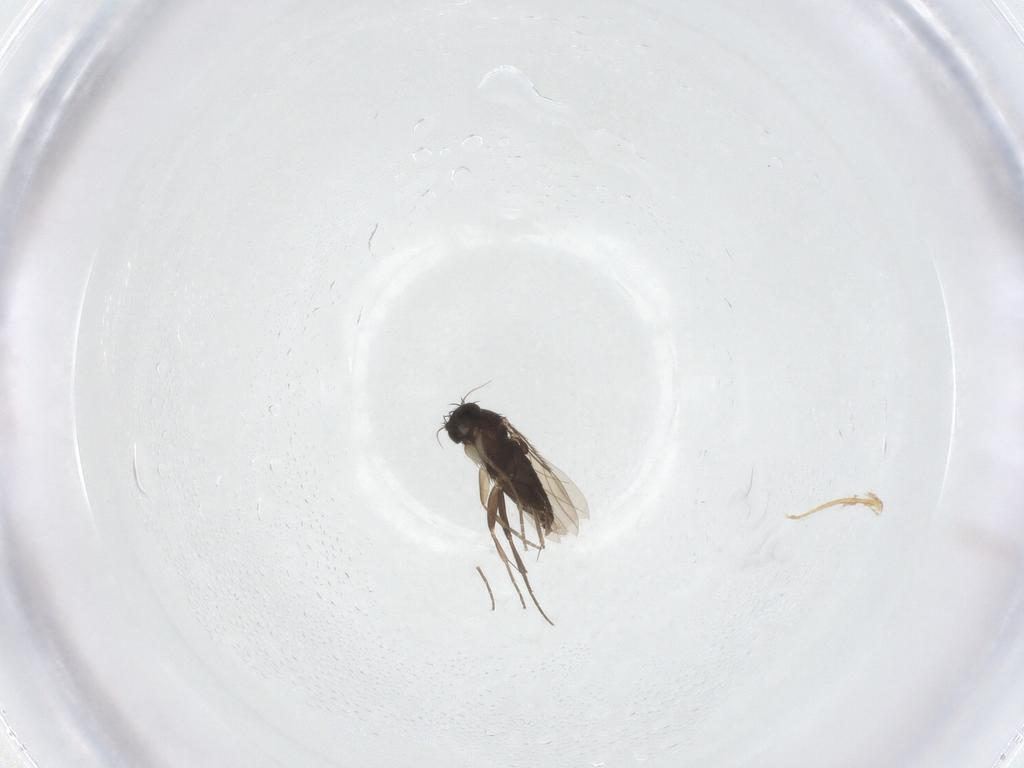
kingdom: Animalia
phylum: Arthropoda
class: Insecta
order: Diptera
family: Phoridae
